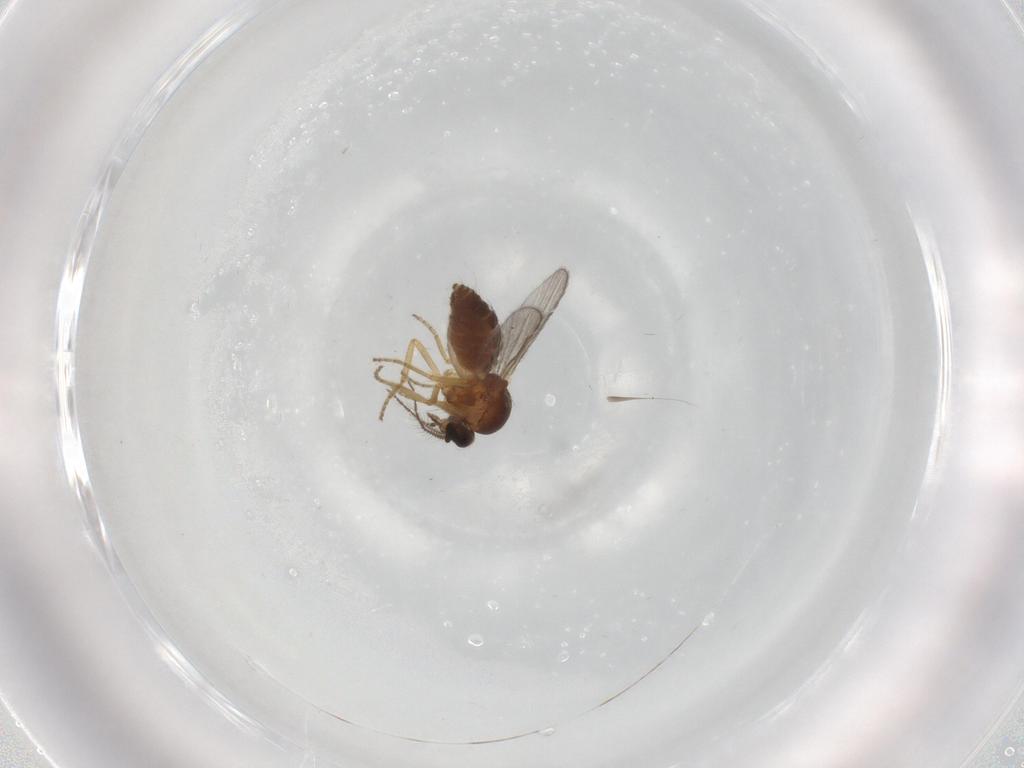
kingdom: Animalia
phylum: Arthropoda
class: Insecta
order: Diptera
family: Ceratopogonidae
